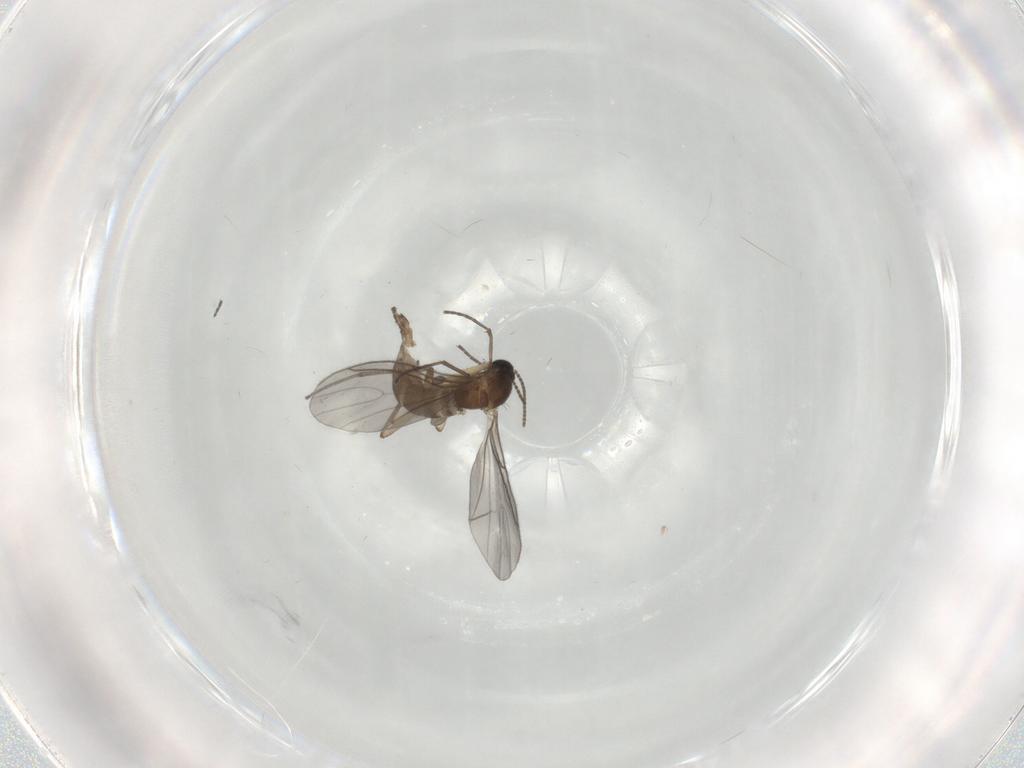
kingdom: Animalia
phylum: Arthropoda
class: Insecta
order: Diptera
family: Sciaridae
